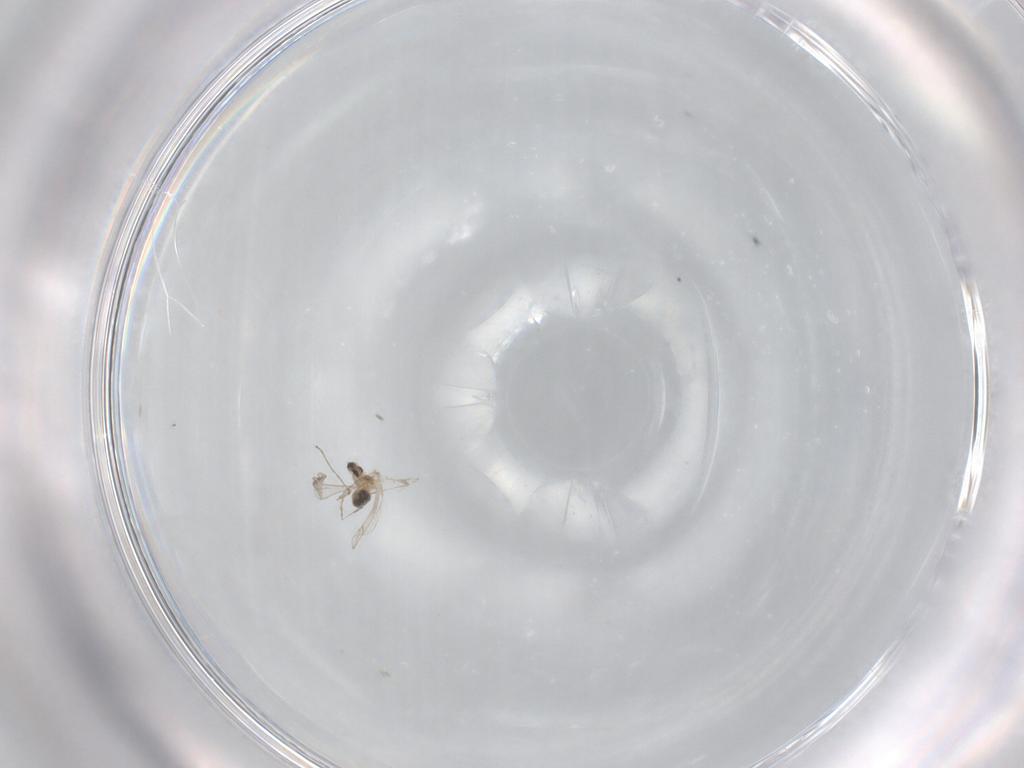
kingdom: Animalia
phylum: Arthropoda
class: Insecta
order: Diptera
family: Cecidomyiidae
